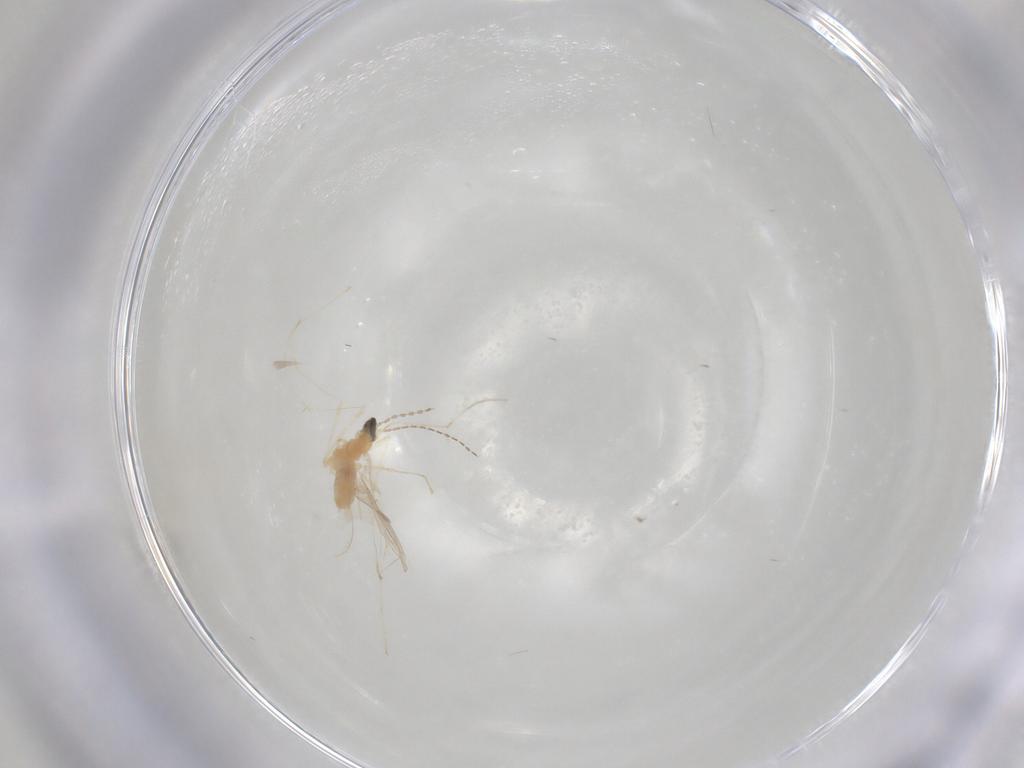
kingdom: Animalia
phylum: Arthropoda
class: Insecta
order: Diptera
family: Cecidomyiidae
